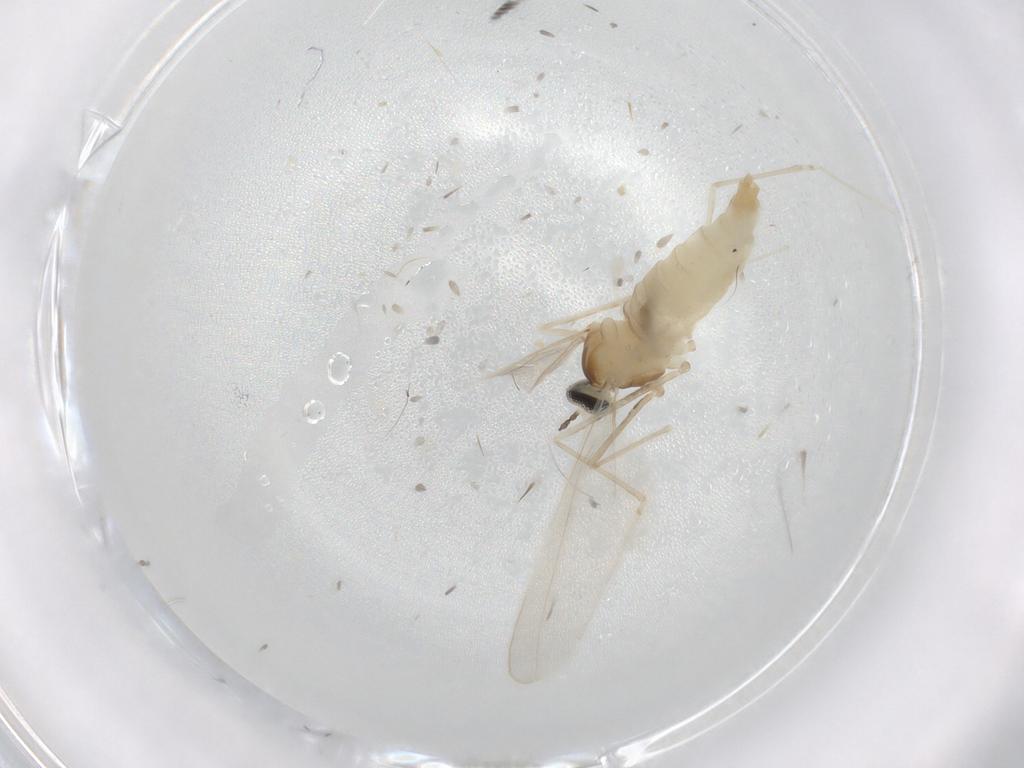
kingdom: Animalia
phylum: Arthropoda
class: Insecta
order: Diptera
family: Cecidomyiidae
